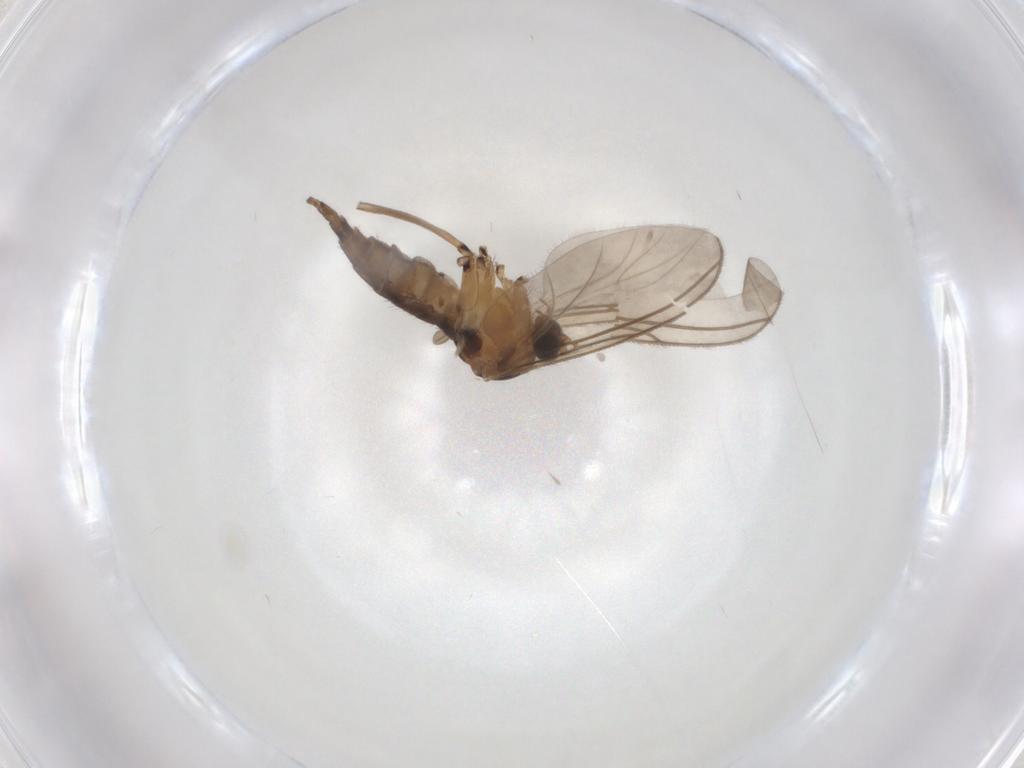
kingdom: Animalia
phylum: Arthropoda
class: Insecta
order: Diptera
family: Sciaridae
